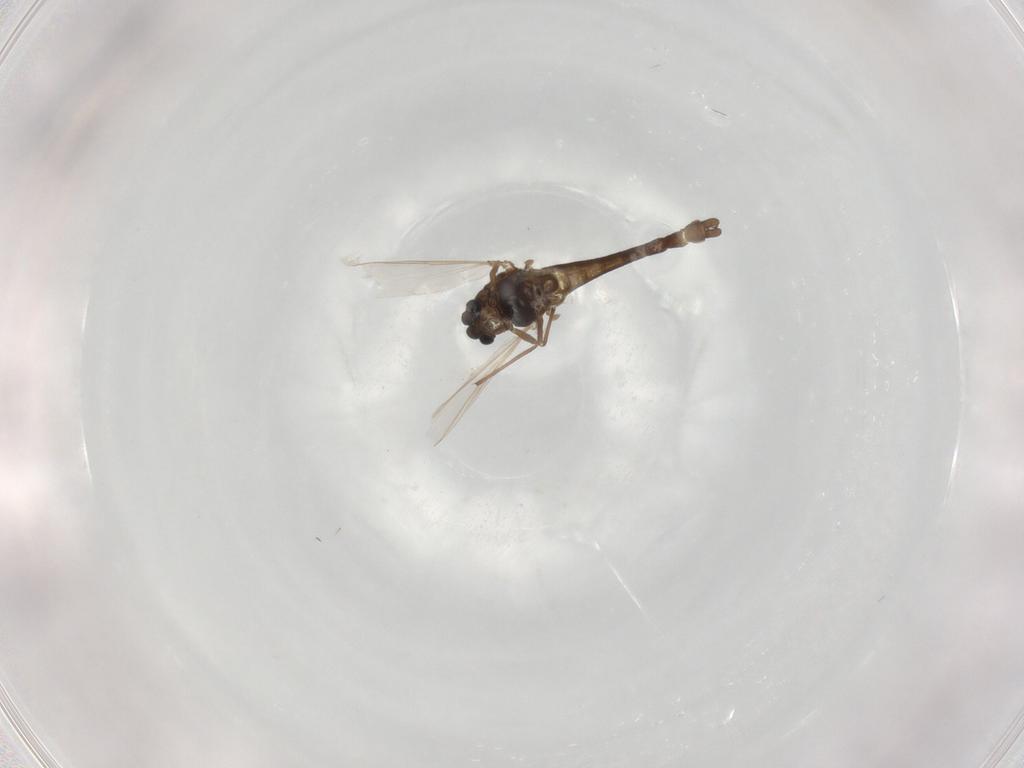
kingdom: Animalia
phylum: Arthropoda
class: Insecta
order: Diptera
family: Chironomidae
